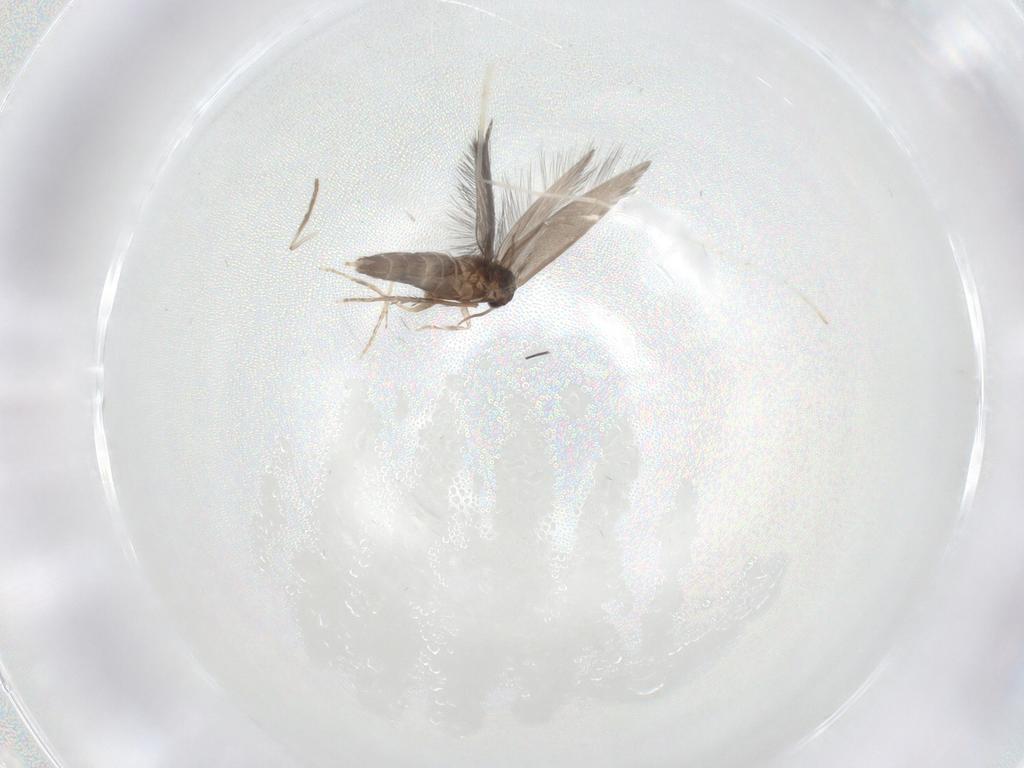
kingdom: Animalia
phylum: Arthropoda
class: Insecta
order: Trichoptera
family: Hydroptilidae
